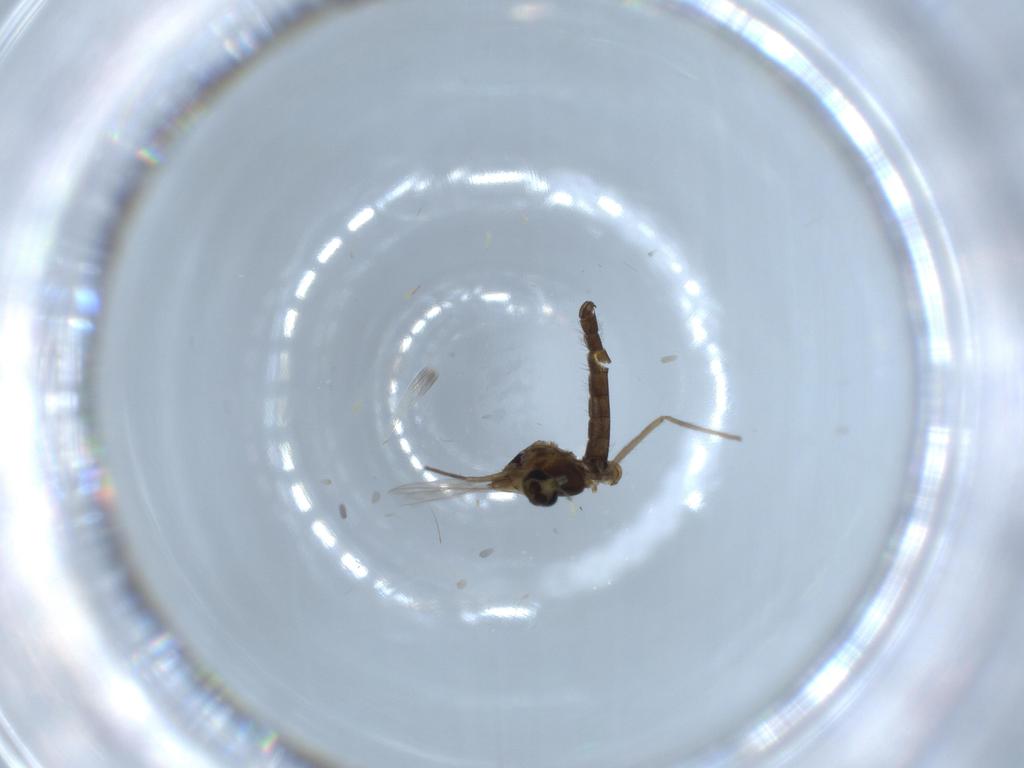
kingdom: Animalia
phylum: Arthropoda
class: Insecta
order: Diptera
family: Chironomidae
